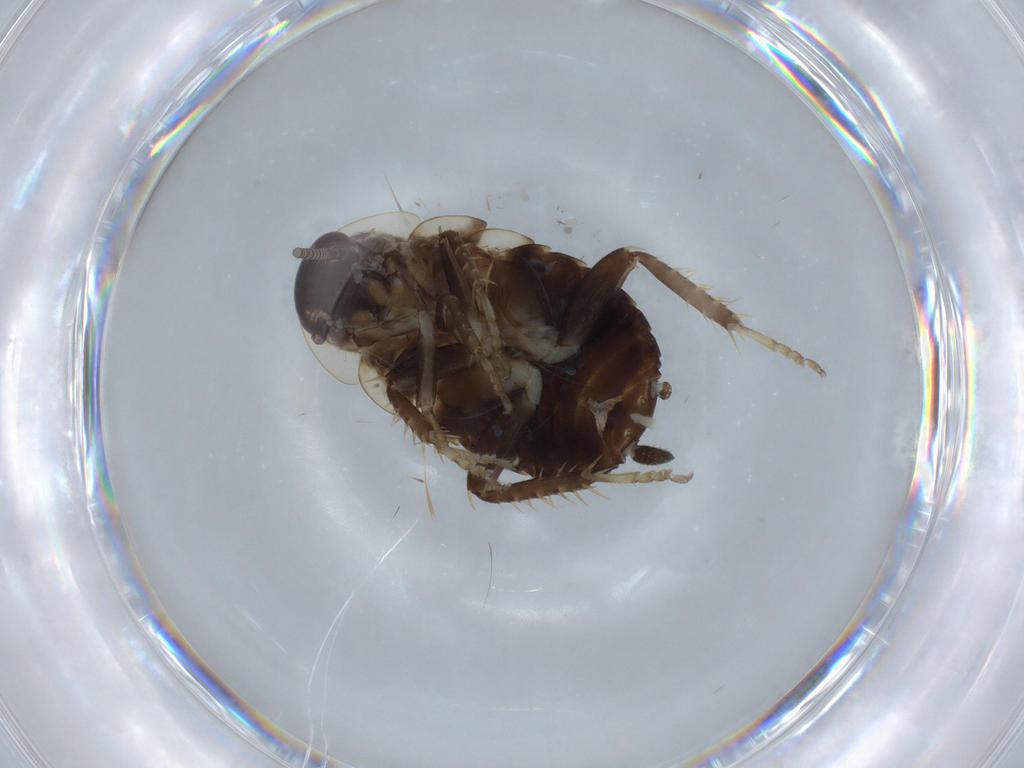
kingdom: Animalia
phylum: Arthropoda
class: Insecta
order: Blattodea
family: Ectobiidae
